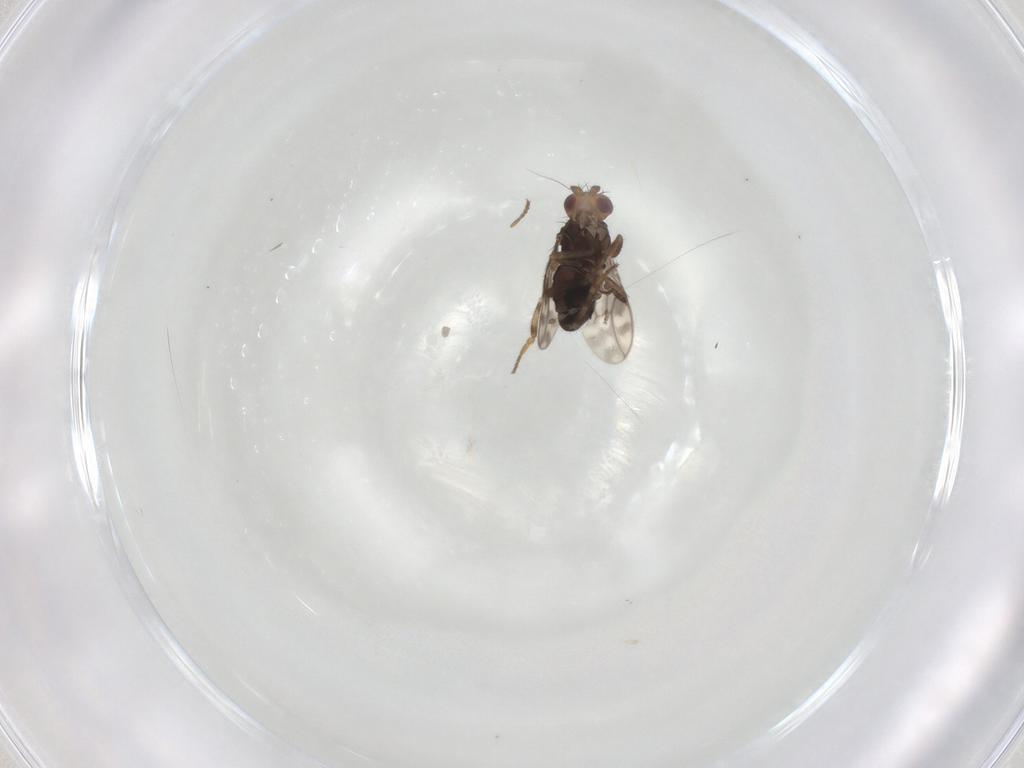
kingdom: Animalia
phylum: Arthropoda
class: Insecta
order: Diptera
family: Sphaeroceridae
